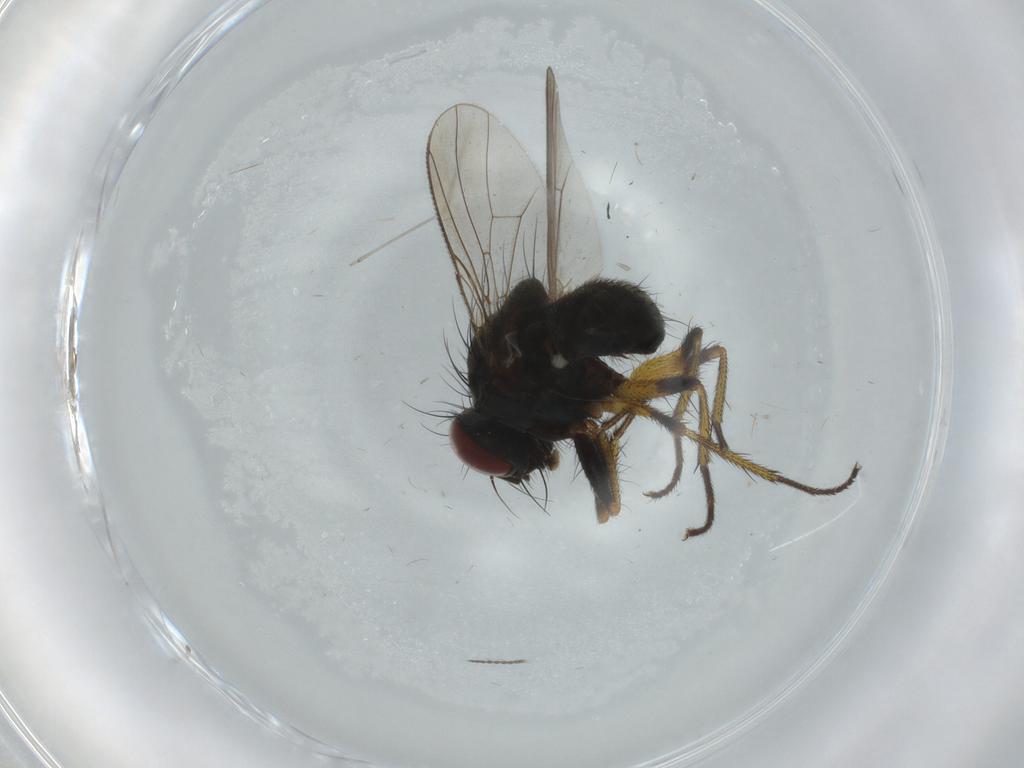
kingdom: Animalia
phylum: Arthropoda
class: Insecta
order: Diptera
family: Muscidae
